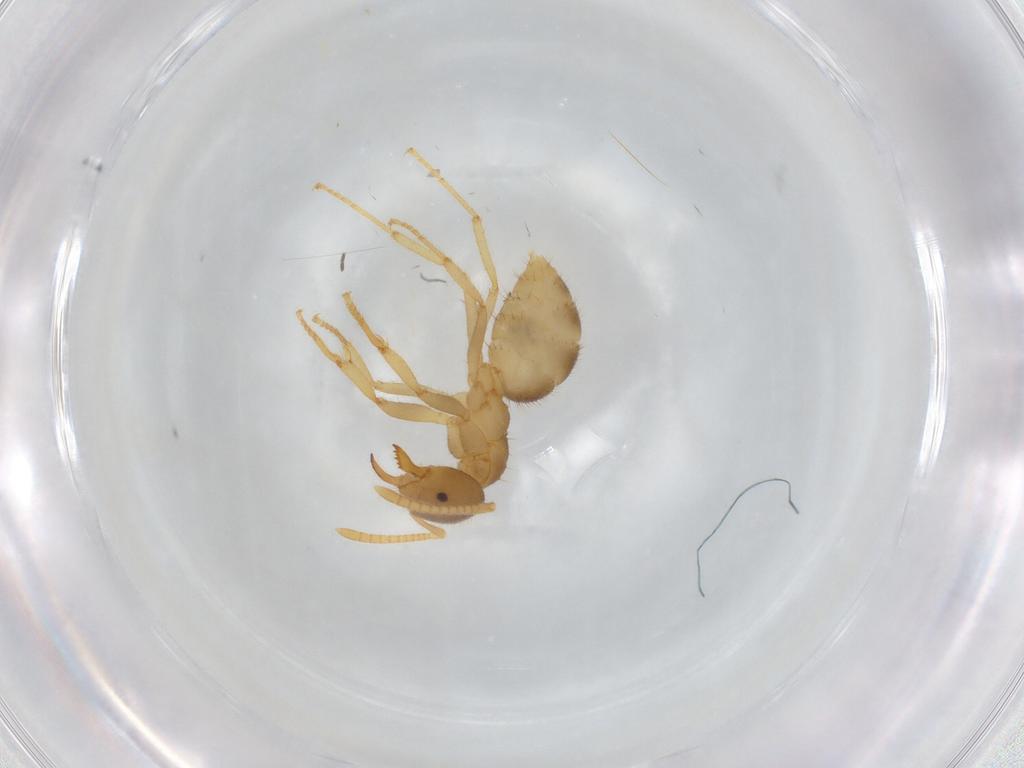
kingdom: Animalia
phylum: Arthropoda
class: Insecta
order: Hymenoptera
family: Formicidae
